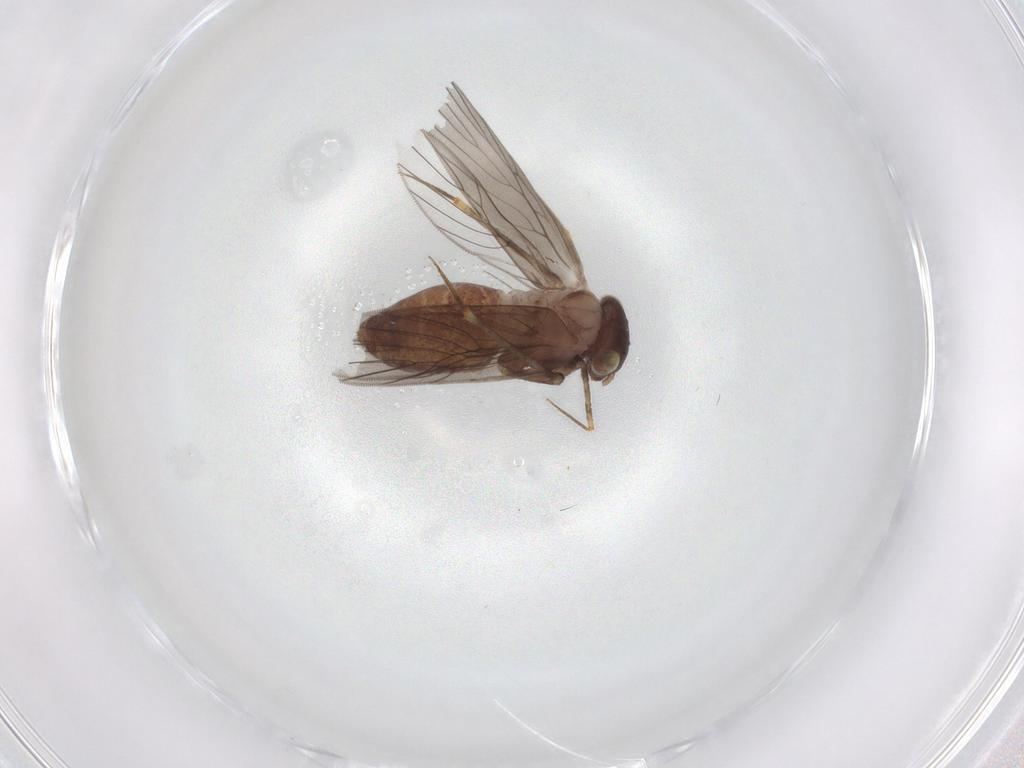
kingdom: Animalia
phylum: Arthropoda
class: Insecta
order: Psocodea
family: Lepidopsocidae
